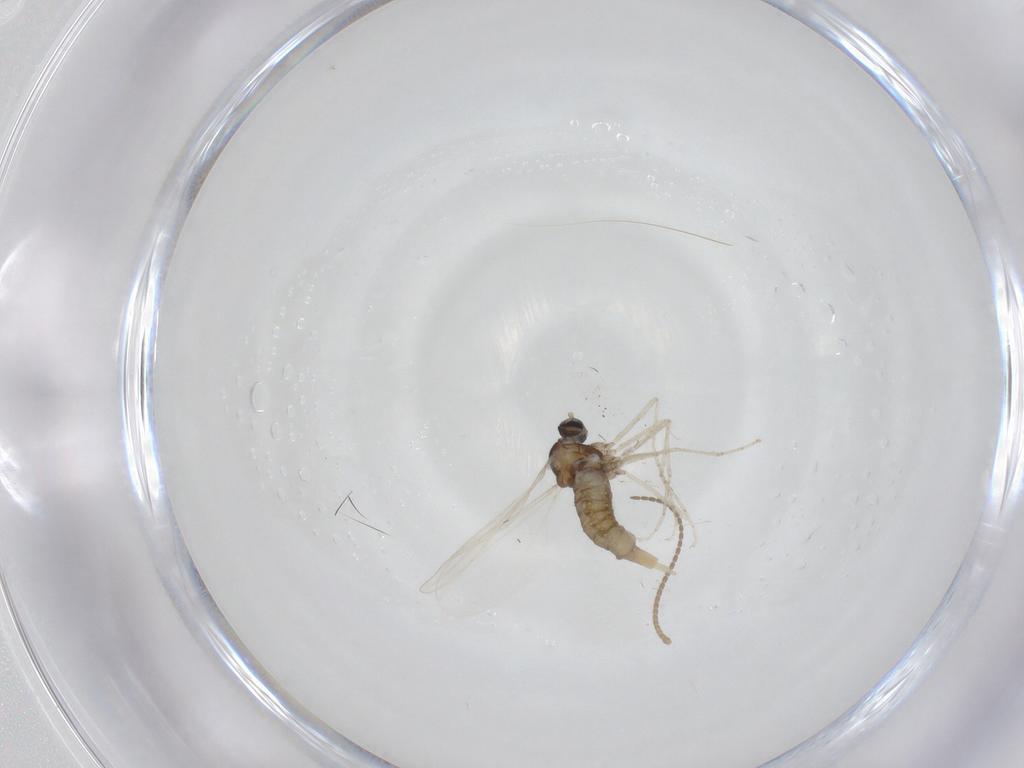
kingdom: Animalia
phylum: Arthropoda
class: Insecta
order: Diptera
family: Cecidomyiidae
